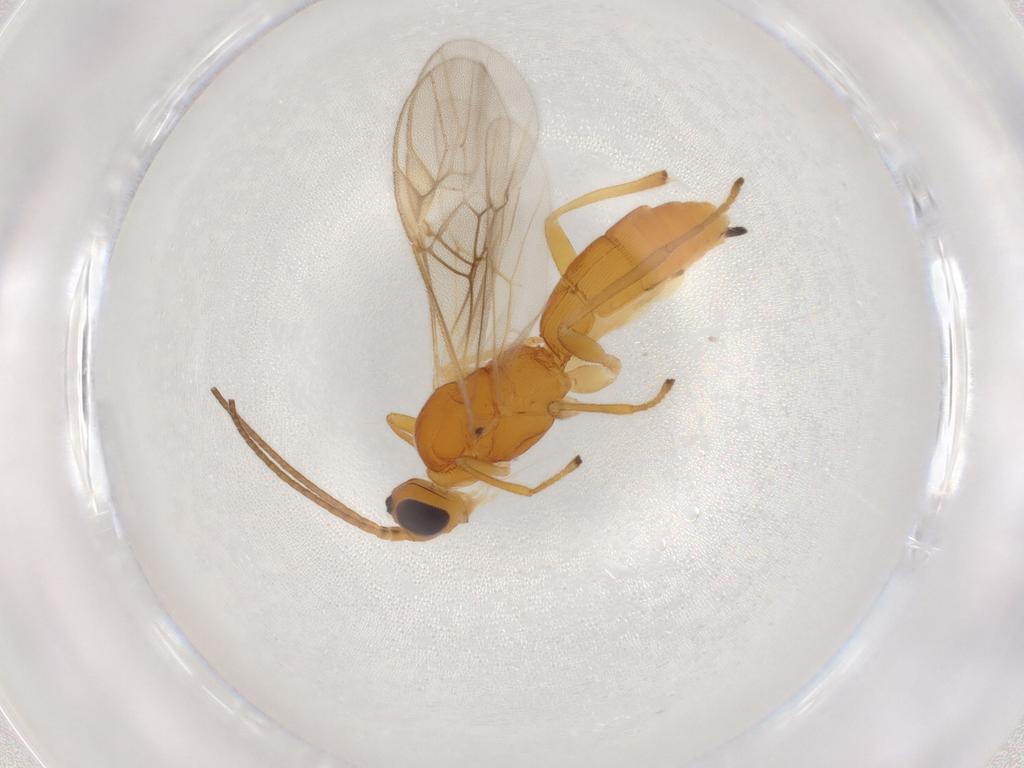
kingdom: Animalia
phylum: Arthropoda
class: Insecta
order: Hymenoptera
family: Braconidae
